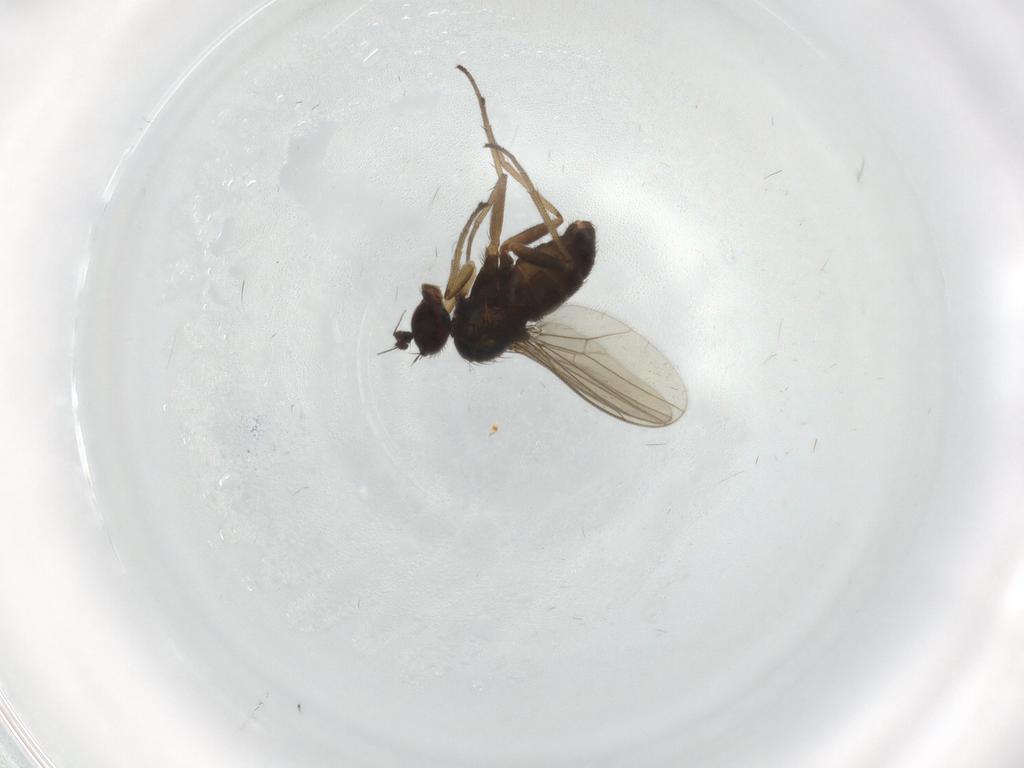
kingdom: Animalia
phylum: Arthropoda
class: Insecta
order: Diptera
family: Dolichopodidae
